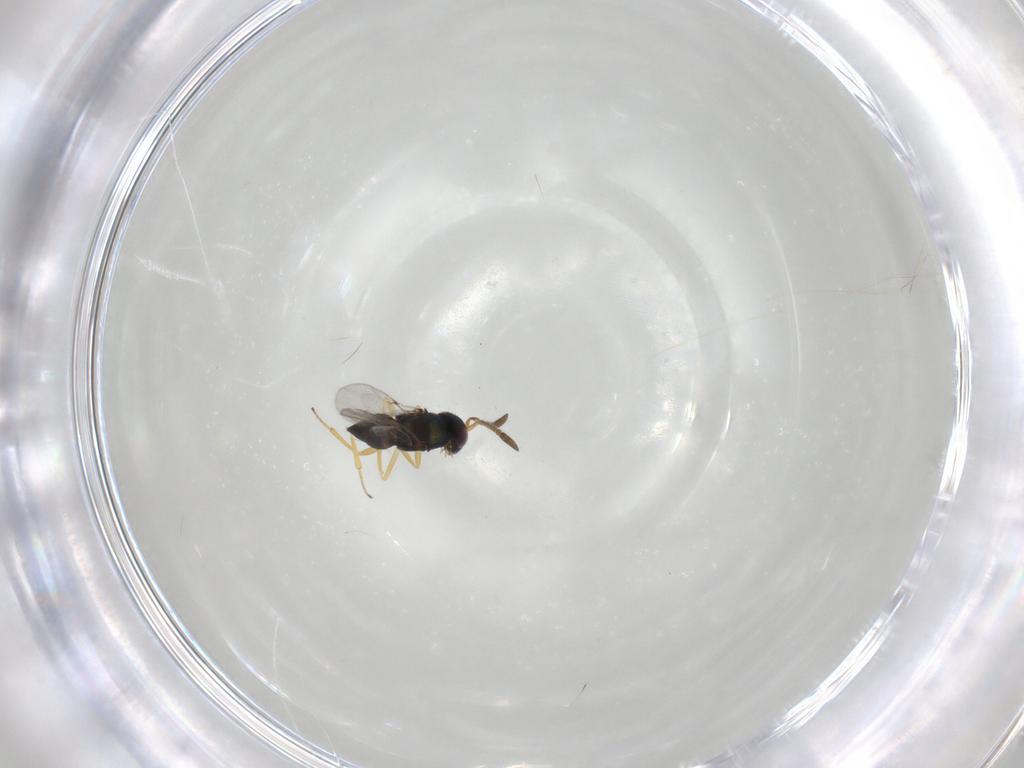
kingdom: Animalia
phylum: Arthropoda
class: Insecta
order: Hymenoptera
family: Encyrtidae
